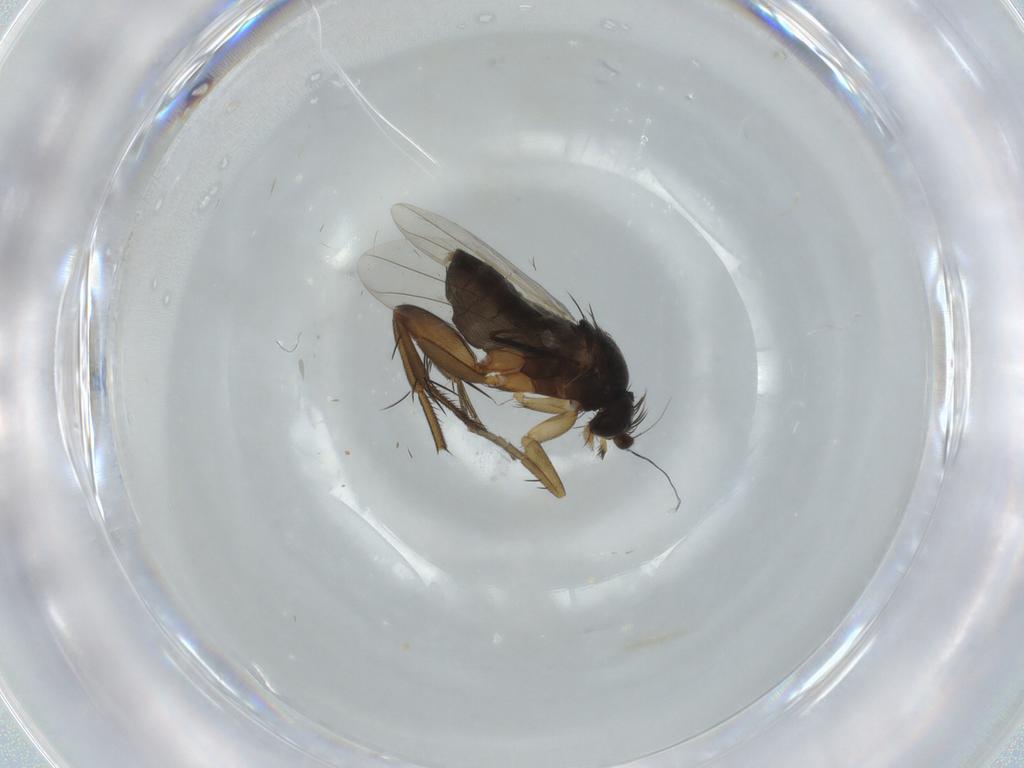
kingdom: Animalia
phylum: Arthropoda
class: Insecta
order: Diptera
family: Phoridae
